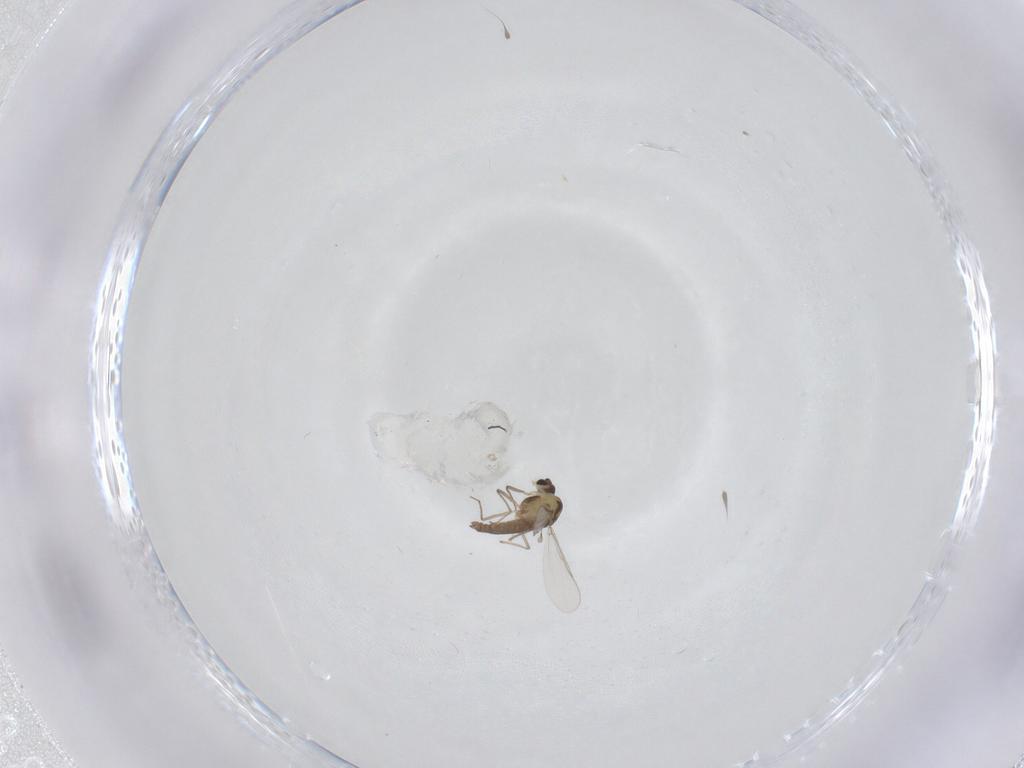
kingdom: Animalia
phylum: Arthropoda
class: Insecta
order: Diptera
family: Chironomidae
